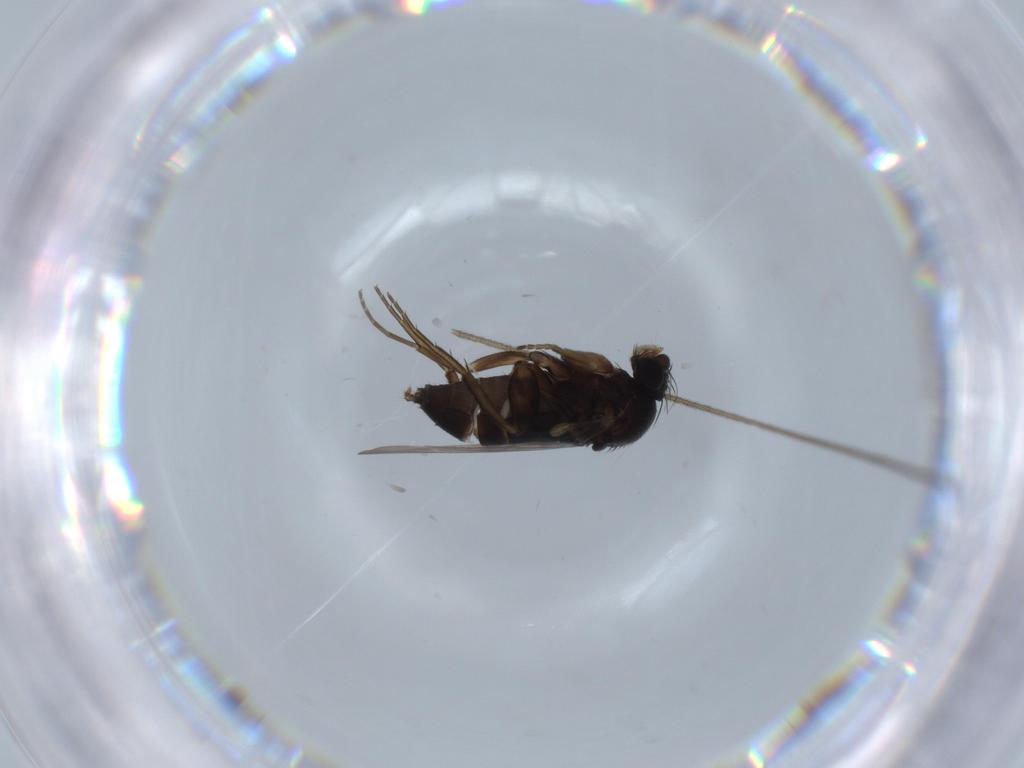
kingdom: Animalia
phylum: Arthropoda
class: Insecta
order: Diptera
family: Phoridae
